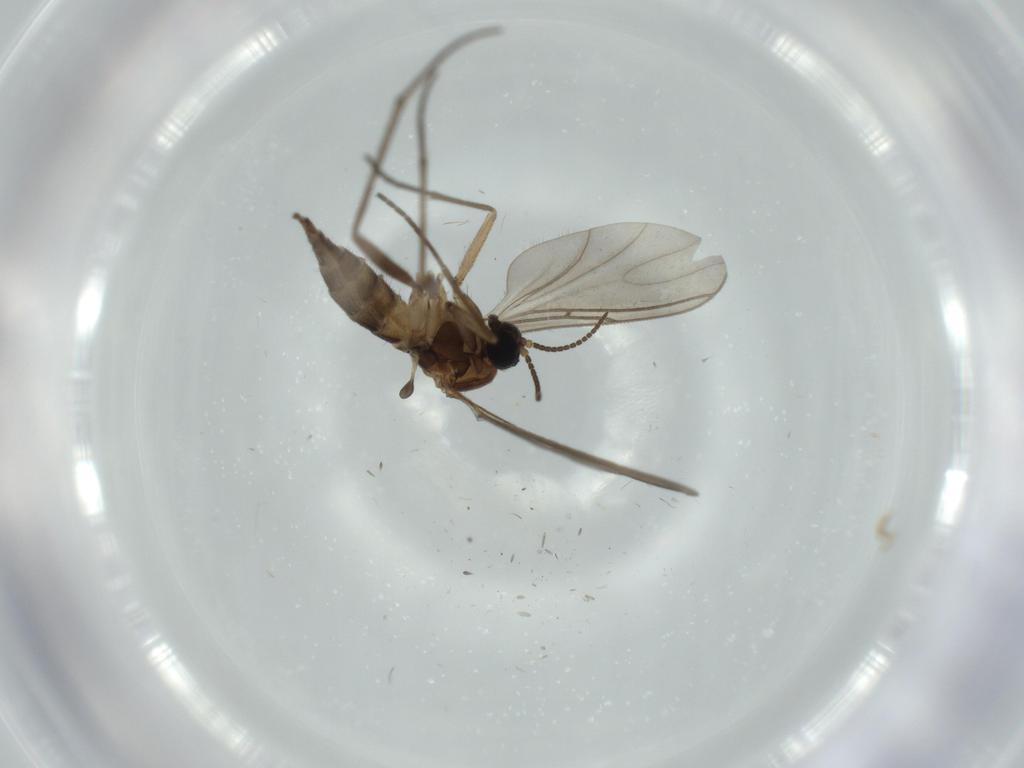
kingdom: Animalia
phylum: Arthropoda
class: Insecta
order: Diptera
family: Sciaridae
